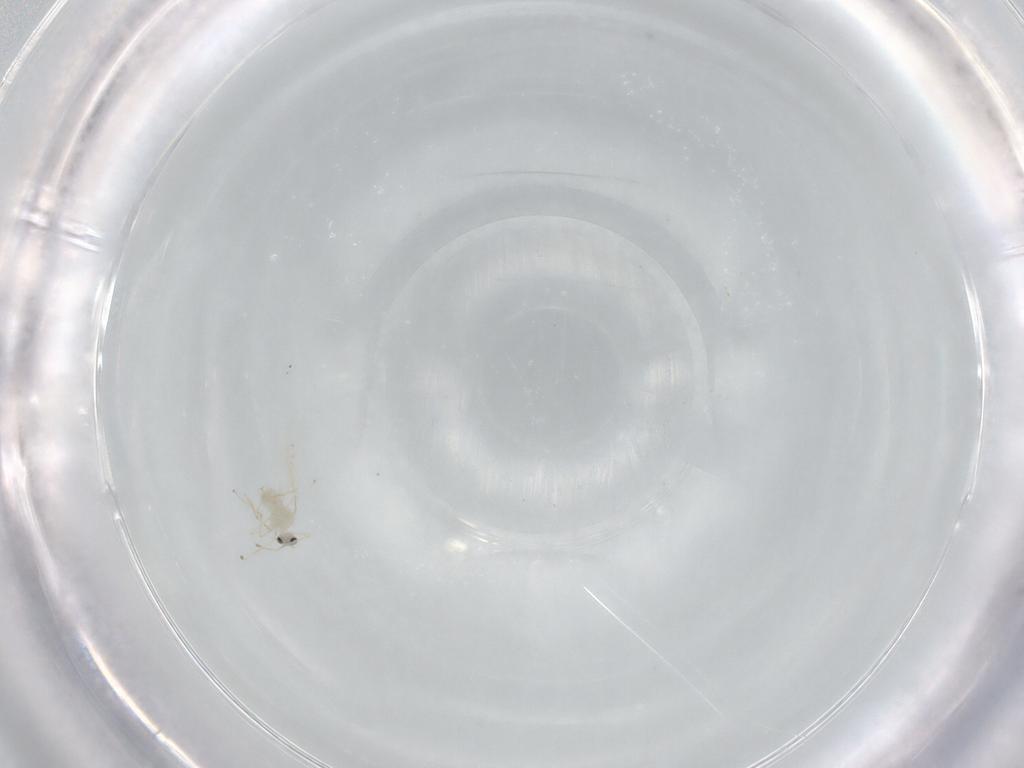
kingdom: Animalia
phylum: Arthropoda
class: Insecta
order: Diptera
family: Cecidomyiidae
